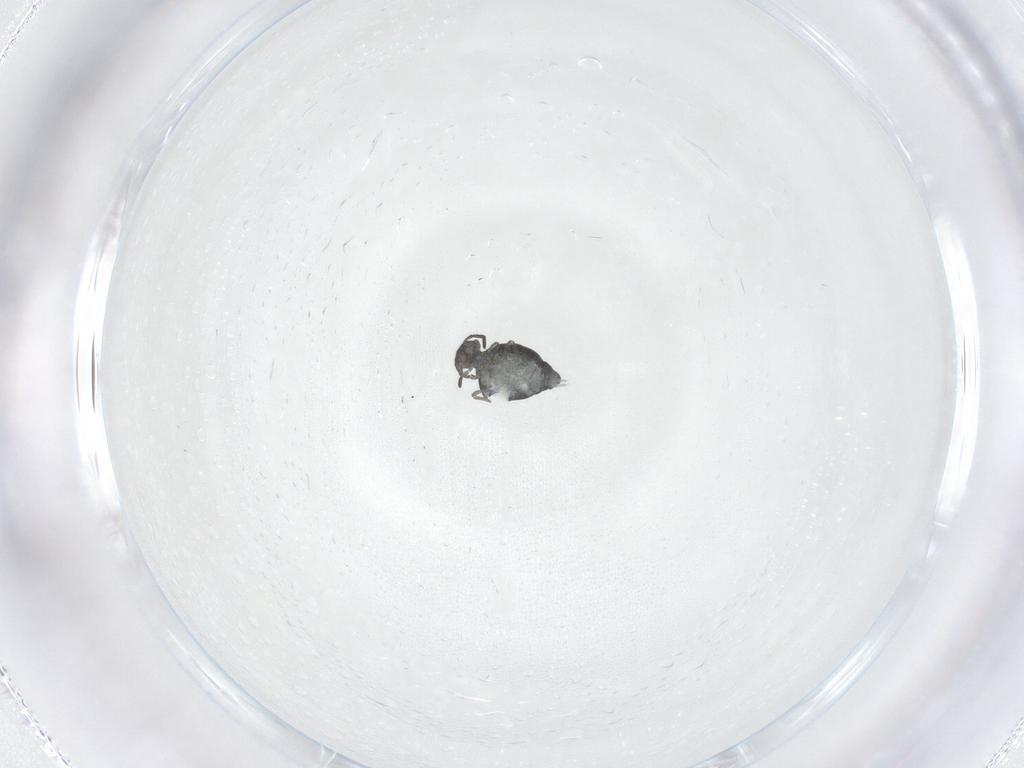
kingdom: Animalia
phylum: Arthropoda
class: Collembola
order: Symphypleona
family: Katiannidae
